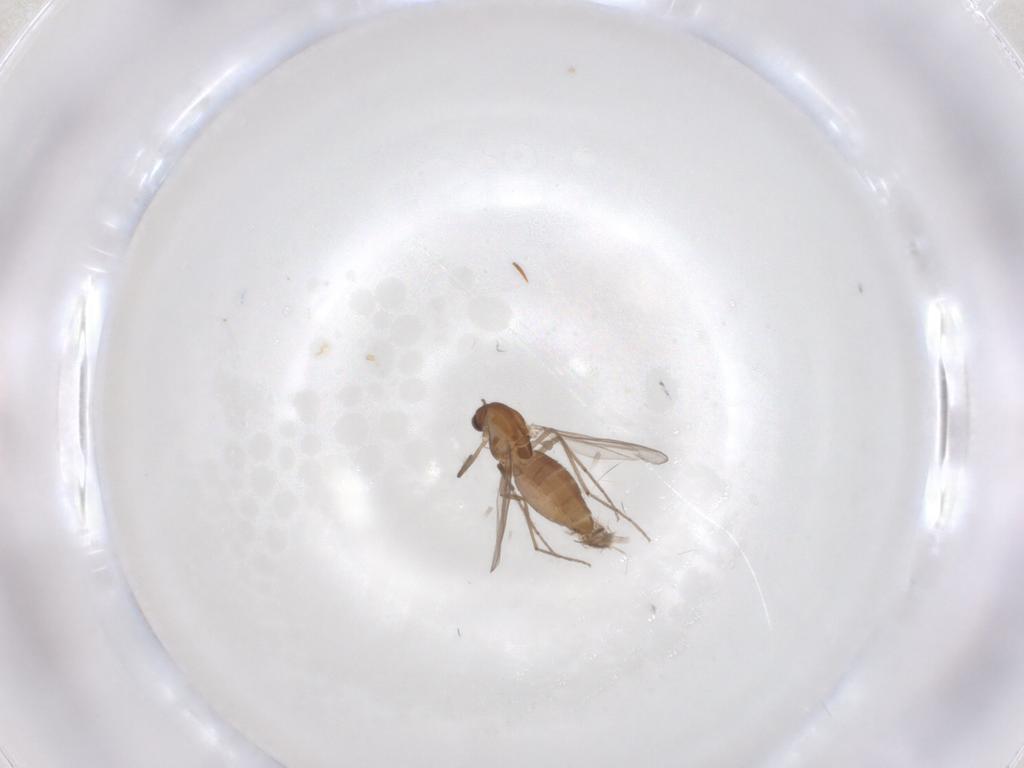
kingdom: Animalia
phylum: Arthropoda
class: Insecta
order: Diptera
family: Chironomidae
